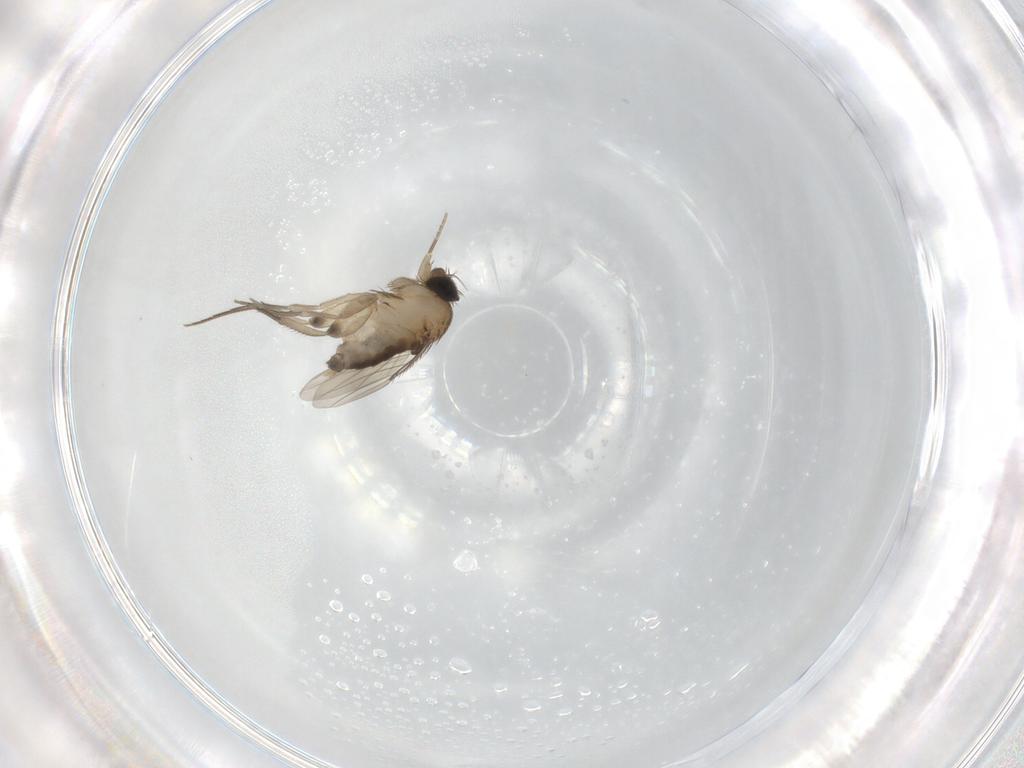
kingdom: Animalia
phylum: Arthropoda
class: Insecta
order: Diptera
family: Phoridae
